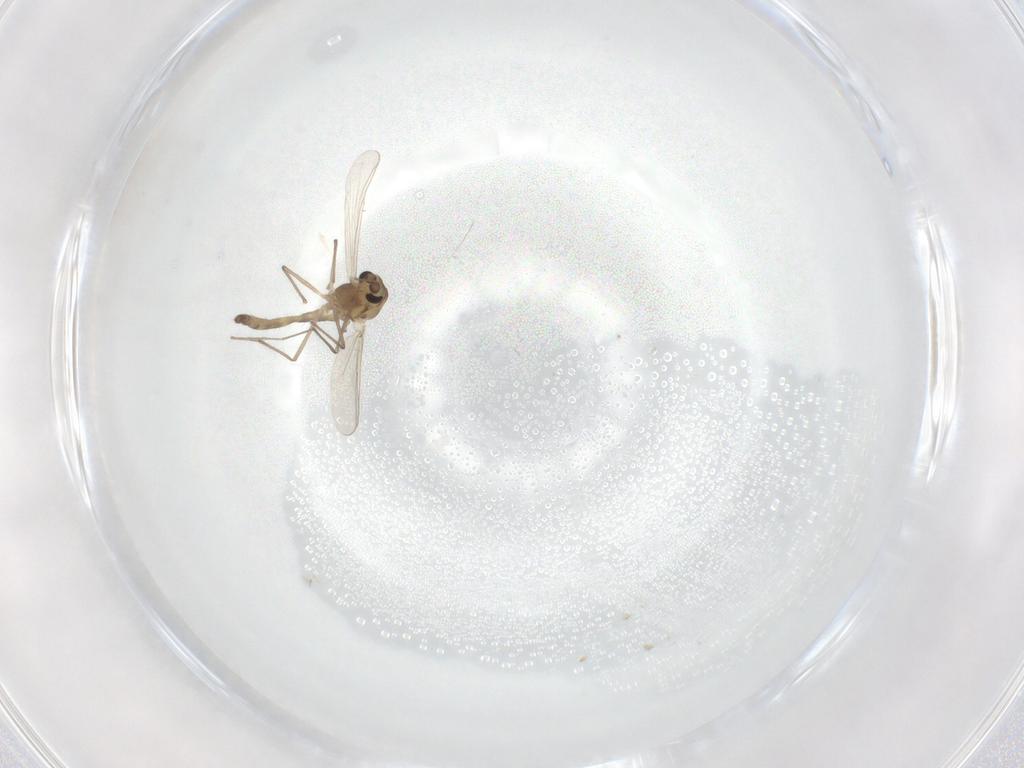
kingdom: Animalia
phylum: Arthropoda
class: Insecta
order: Diptera
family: Chironomidae
